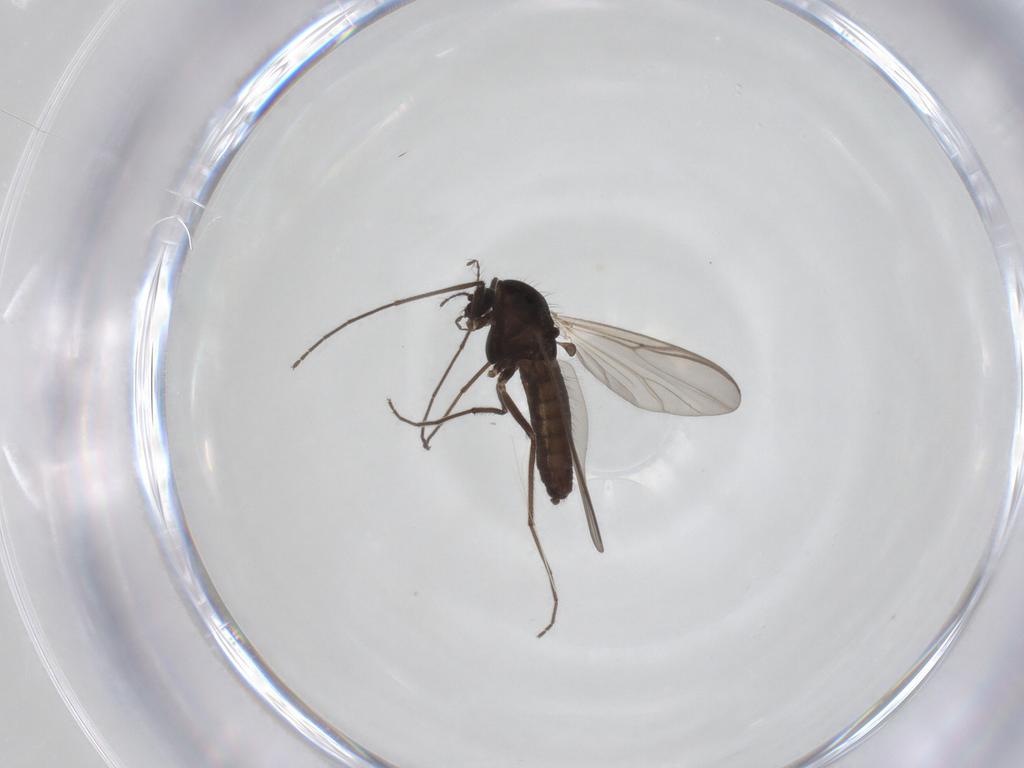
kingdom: Animalia
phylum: Arthropoda
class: Insecta
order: Diptera
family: Chironomidae
